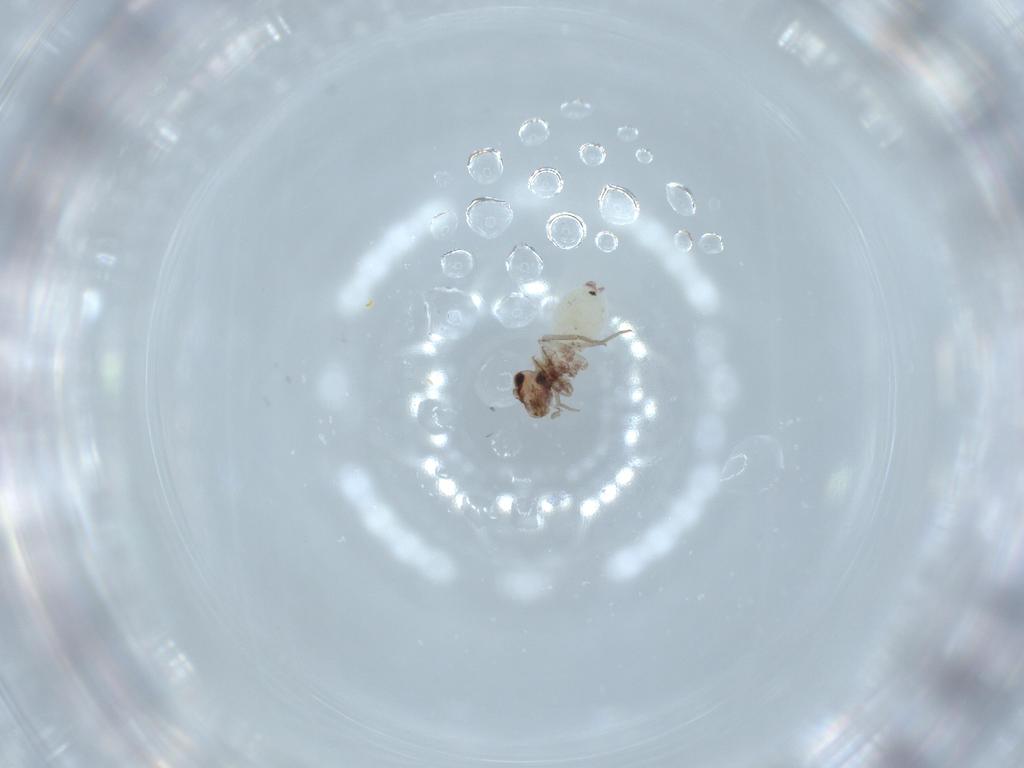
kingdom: Animalia
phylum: Arthropoda
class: Insecta
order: Psocodea
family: Lepidopsocidae
